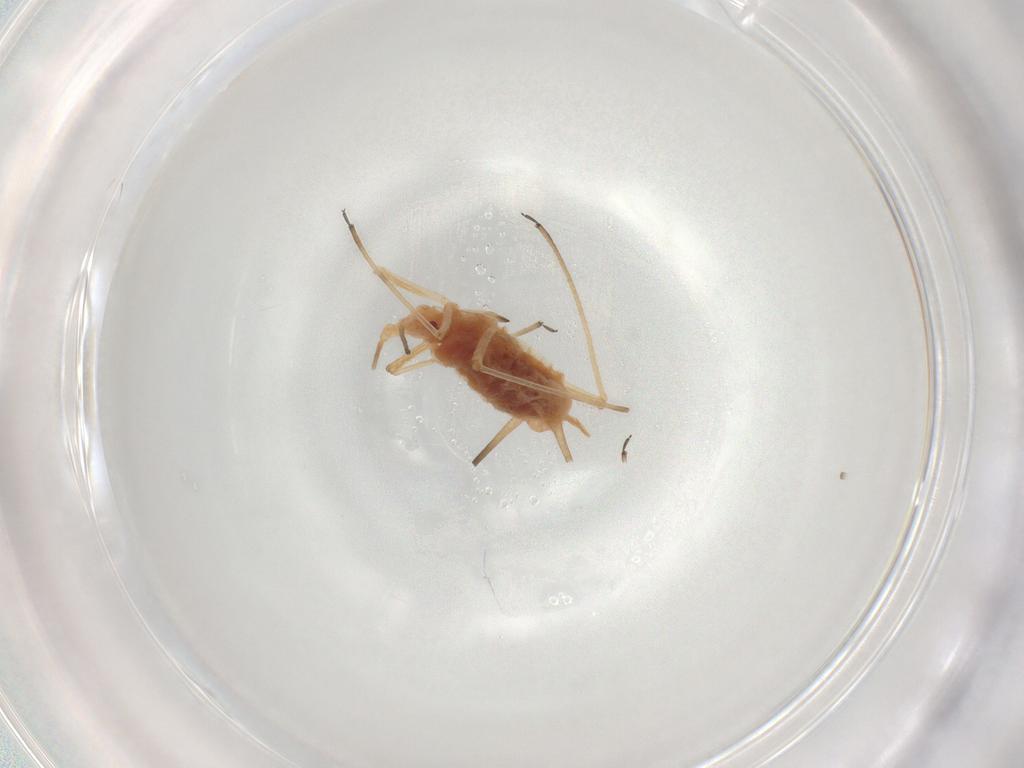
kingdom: Animalia
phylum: Arthropoda
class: Insecta
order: Hemiptera
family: Aphididae
